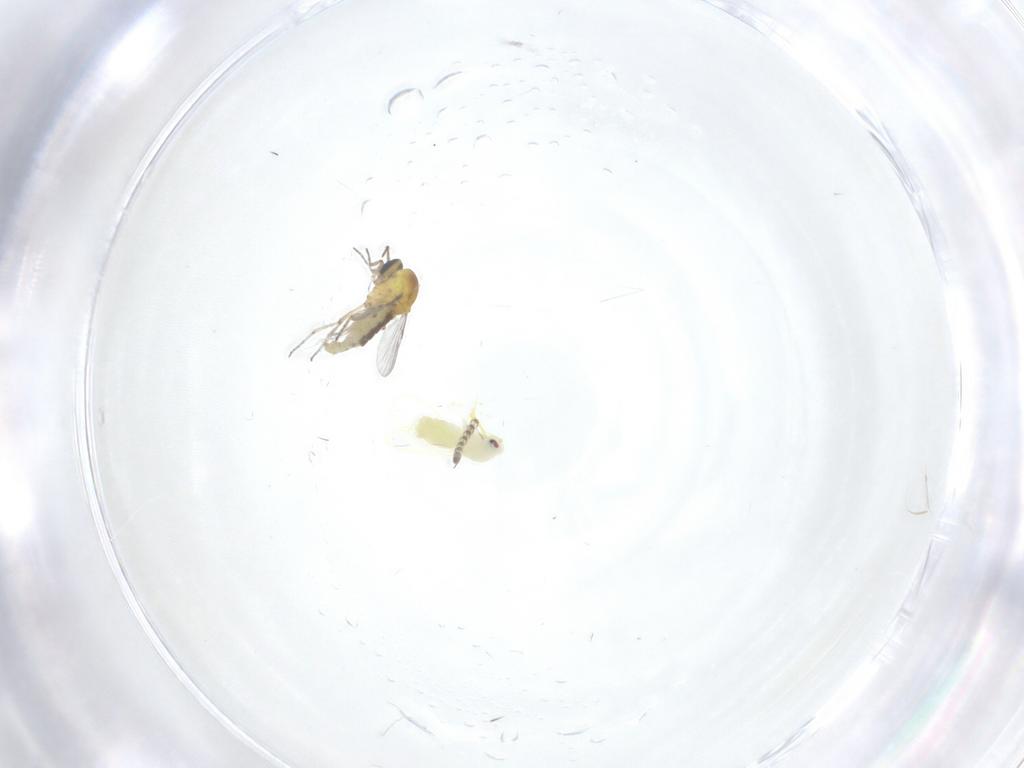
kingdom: Animalia
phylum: Arthropoda
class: Insecta
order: Diptera
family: Ceratopogonidae
